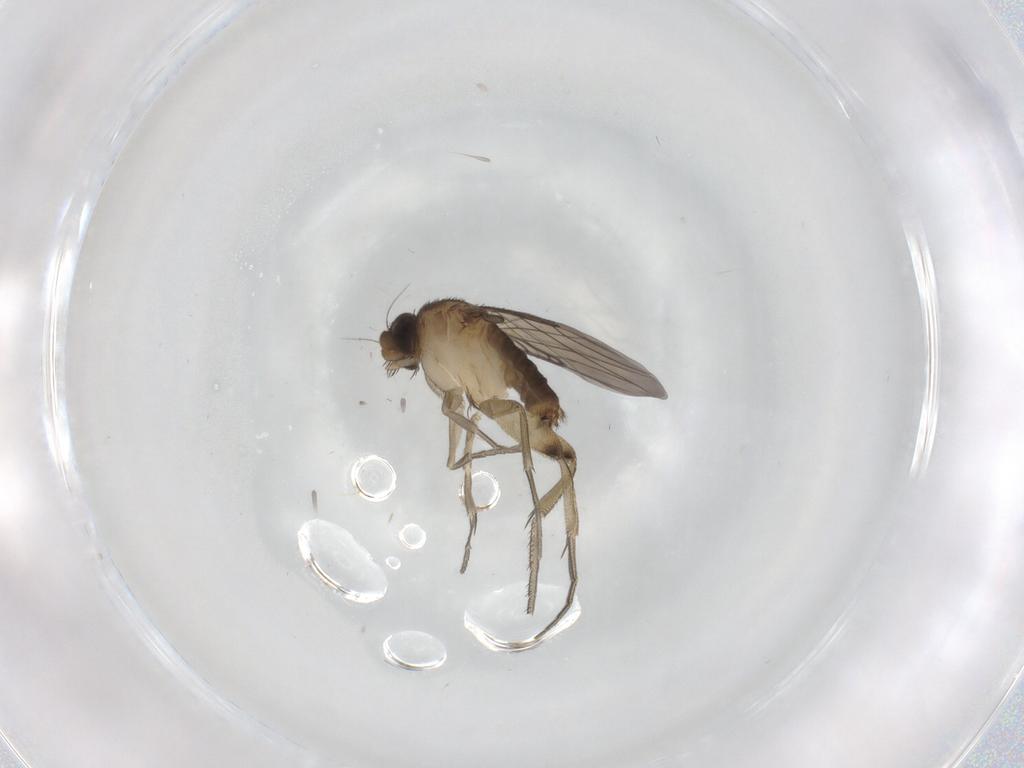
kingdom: Animalia
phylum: Arthropoda
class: Insecta
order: Diptera
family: Phoridae
